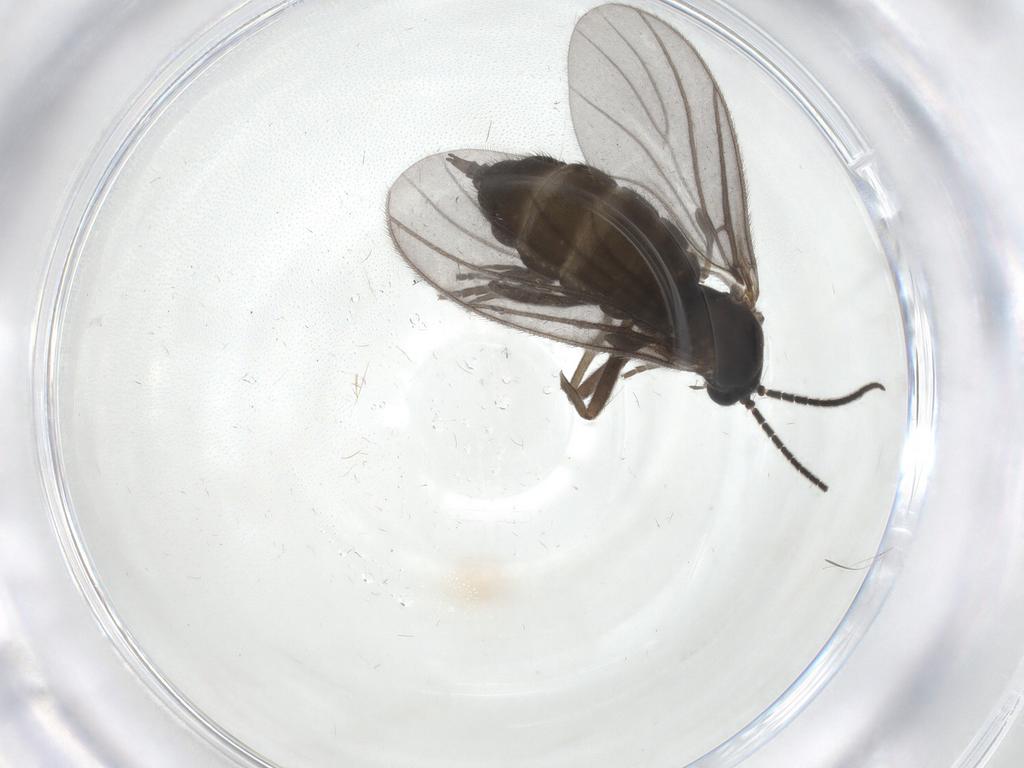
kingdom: Animalia
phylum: Arthropoda
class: Insecta
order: Diptera
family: Sciaridae
